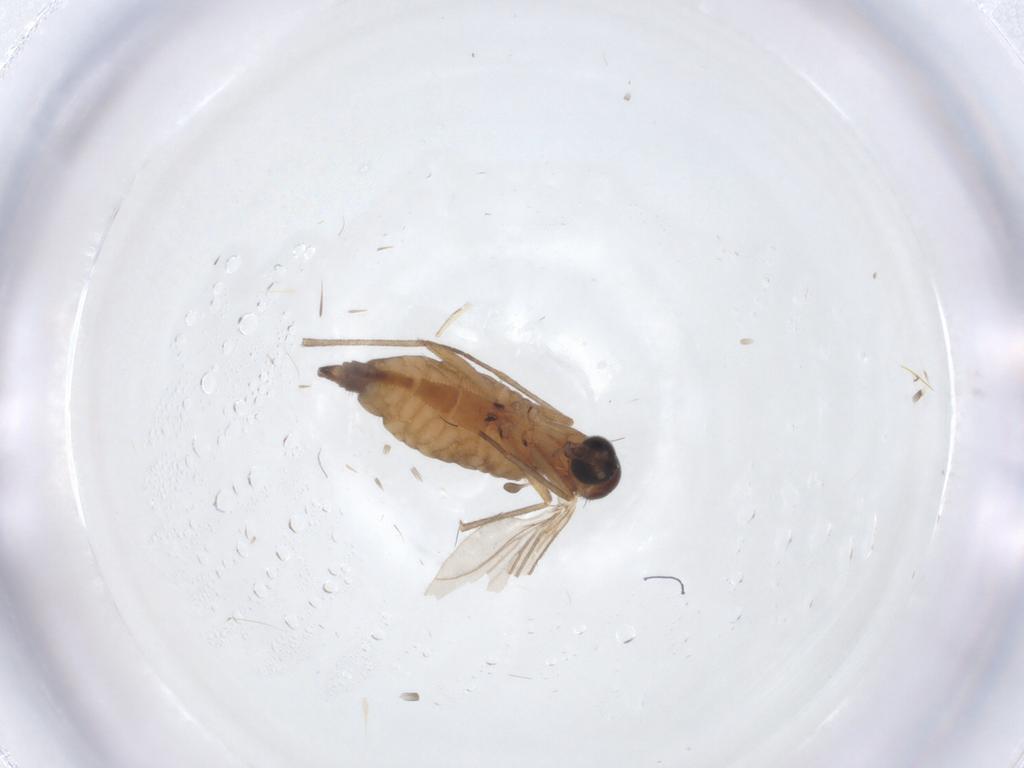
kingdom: Animalia
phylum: Arthropoda
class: Insecta
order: Diptera
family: Sciaridae
